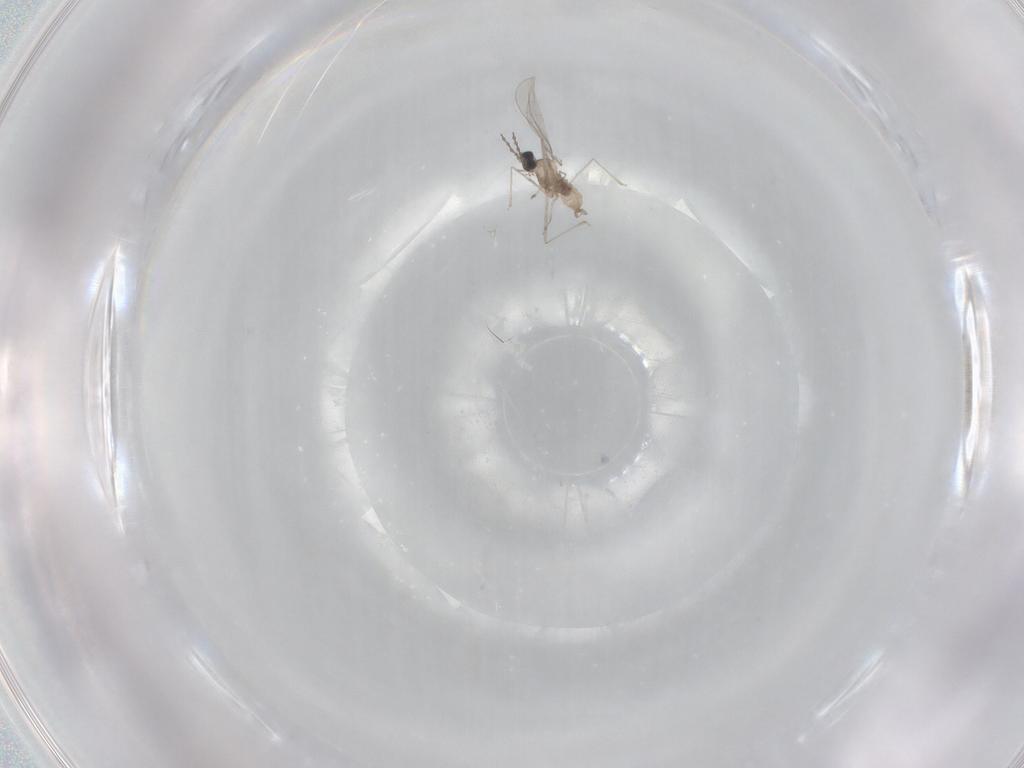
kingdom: Animalia
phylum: Arthropoda
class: Insecta
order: Diptera
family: Cecidomyiidae
